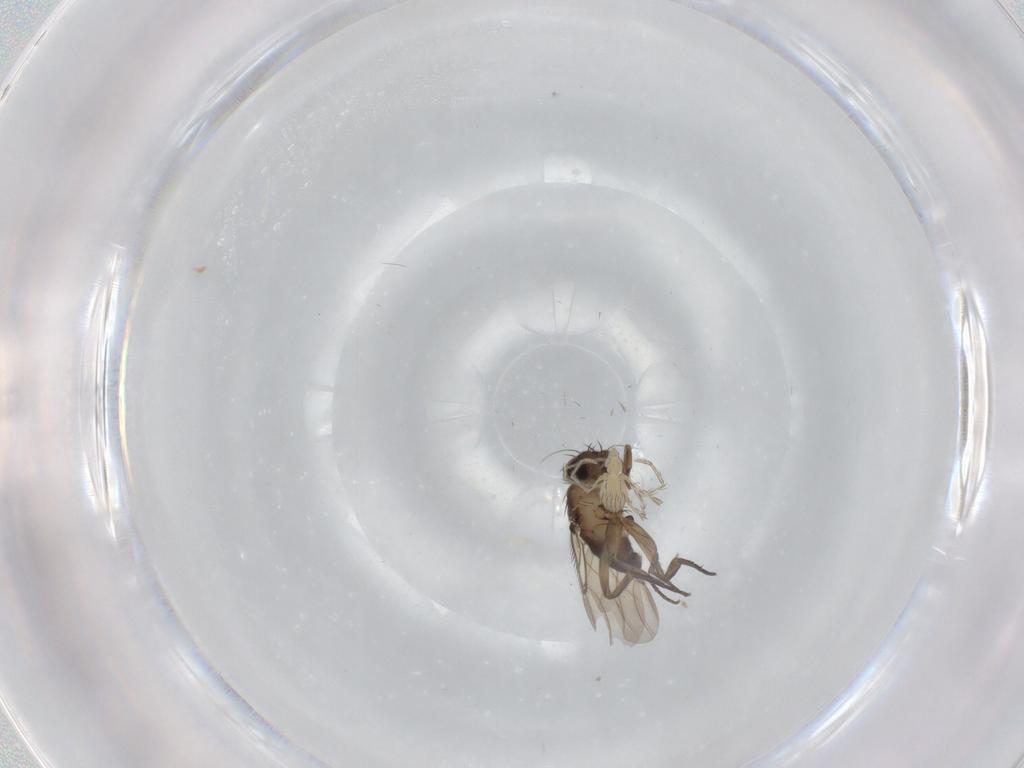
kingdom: Animalia
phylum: Arthropoda
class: Insecta
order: Diptera
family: Phoridae
